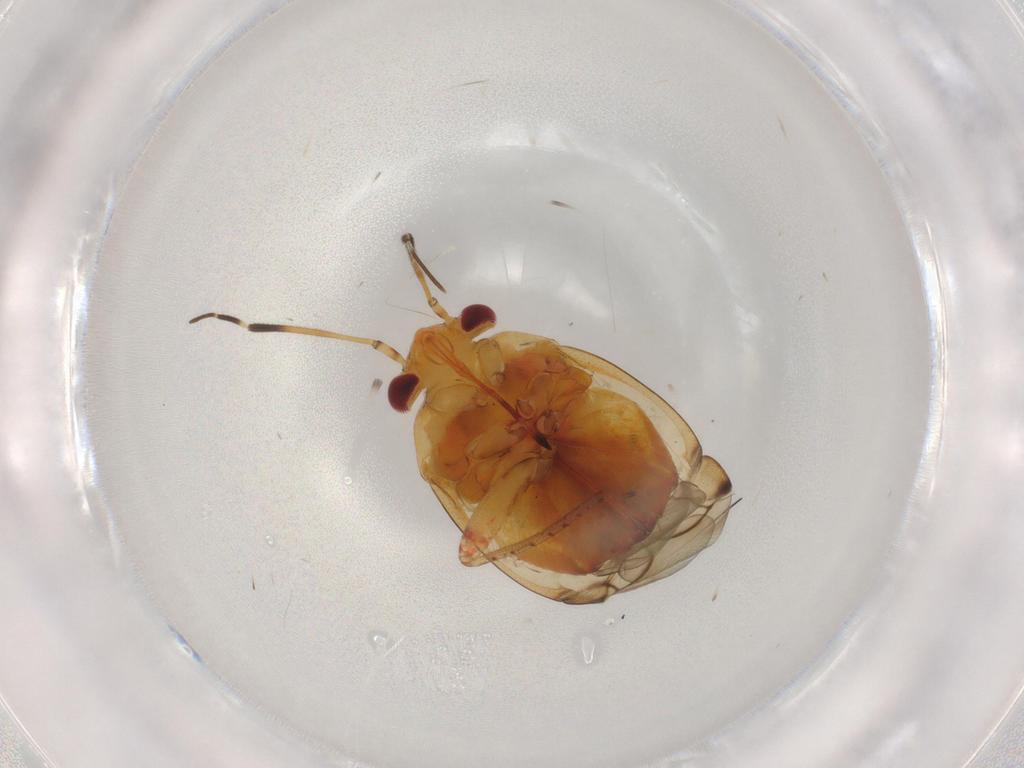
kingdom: Animalia
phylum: Arthropoda
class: Insecta
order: Hemiptera
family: Miridae
